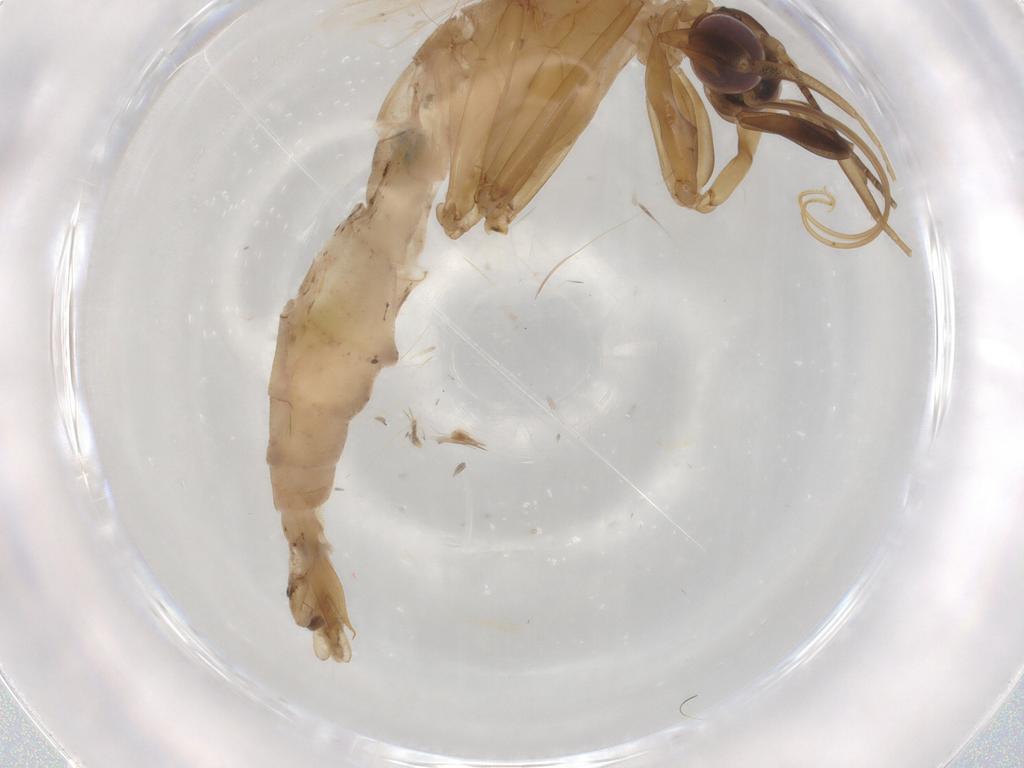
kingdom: Animalia
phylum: Arthropoda
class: Insecta
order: Lepidoptera
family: Erebidae
